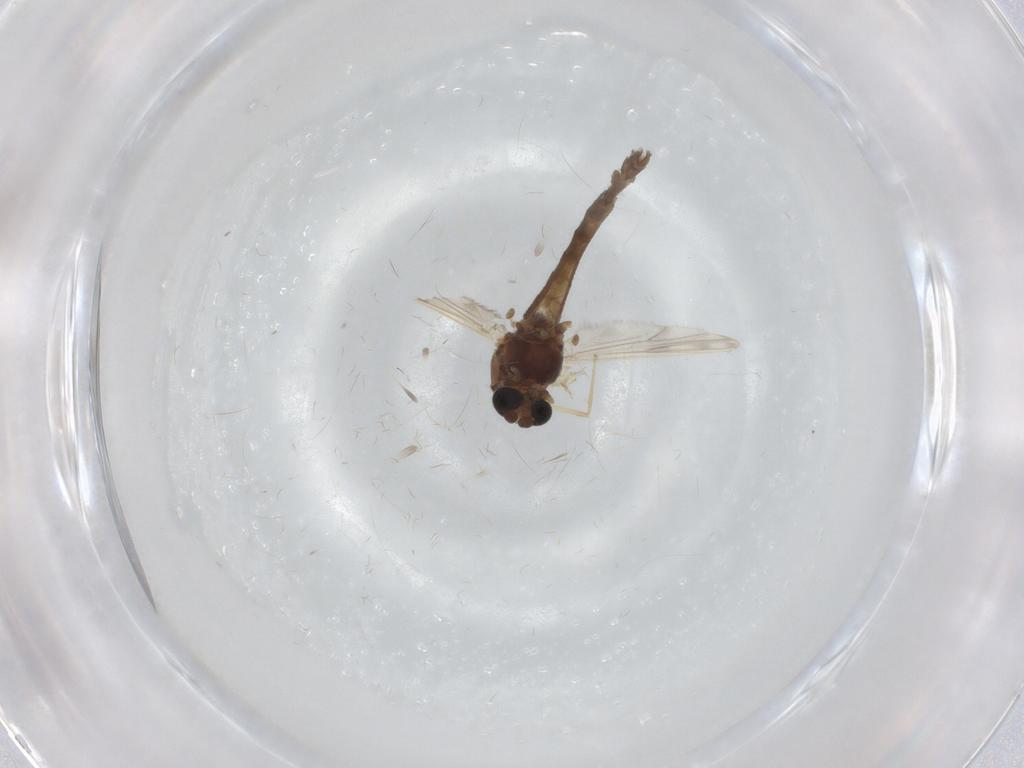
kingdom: Animalia
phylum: Arthropoda
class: Insecta
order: Diptera
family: Chironomidae
